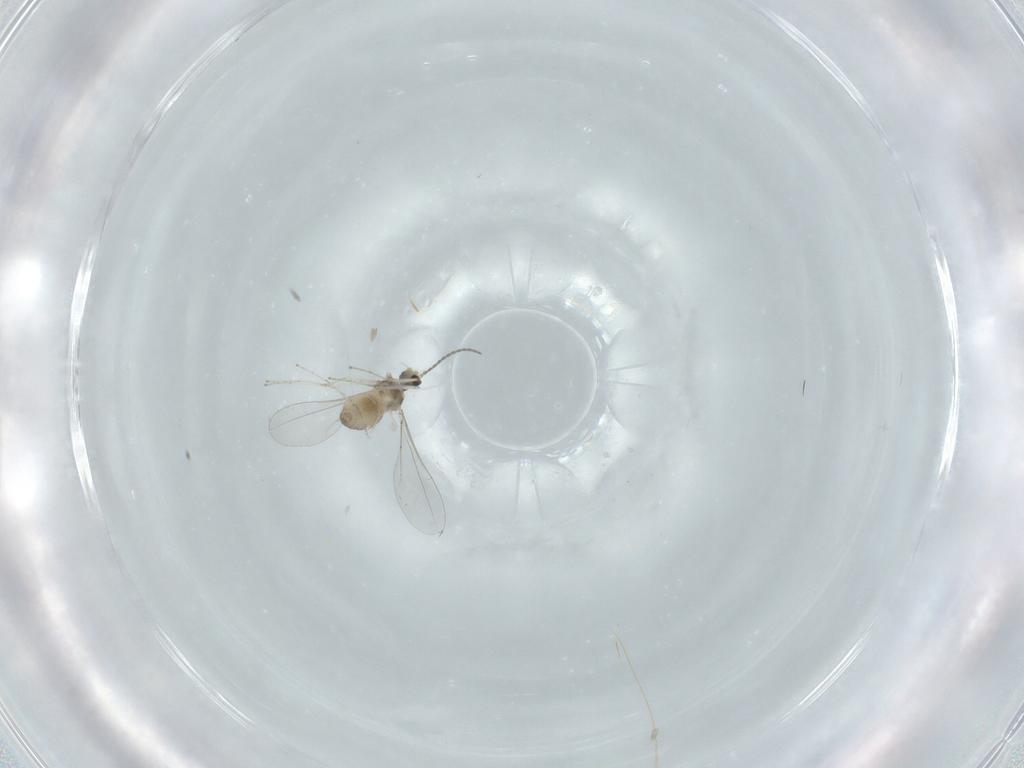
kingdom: Animalia
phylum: Arthropoda
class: Insecta
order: Diptera
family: Cecidomyiidae
